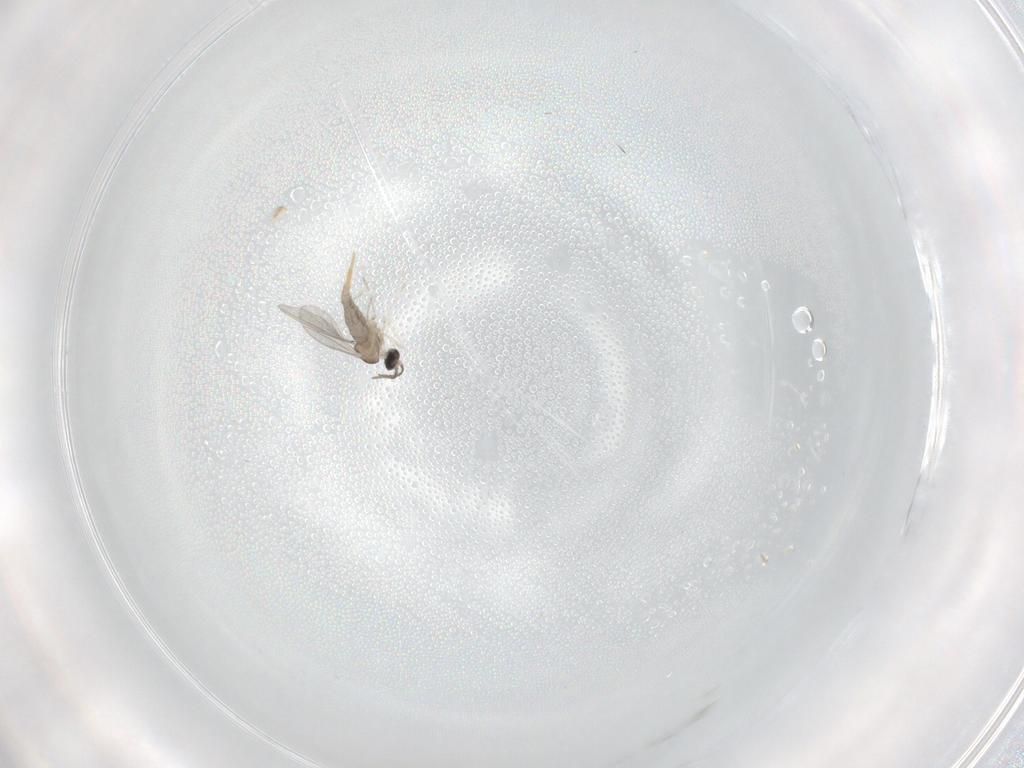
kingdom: Animalia
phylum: Arthropoda
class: Insecta
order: Diptera
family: Cecidomyiidae
